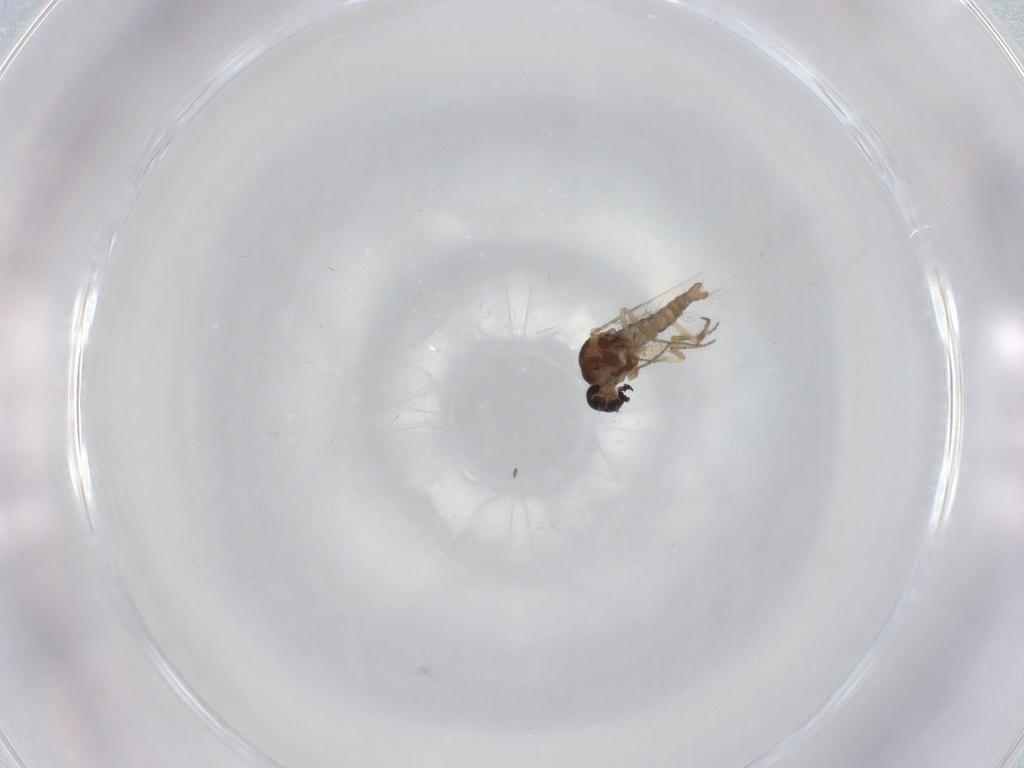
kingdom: Animalia
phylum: Arthropoda
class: Insecta
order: Diptera
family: Ceratopogonidae
